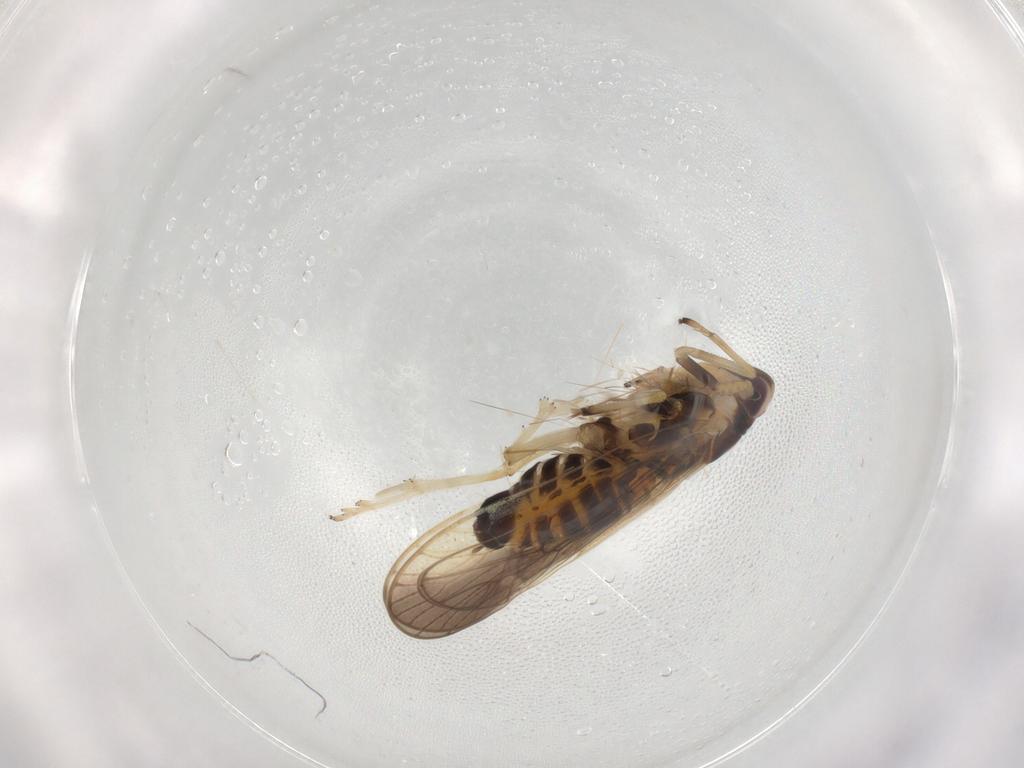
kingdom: Animalia
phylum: Arthropoda
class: Insecta
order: Hemiptera
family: Delphacidae
